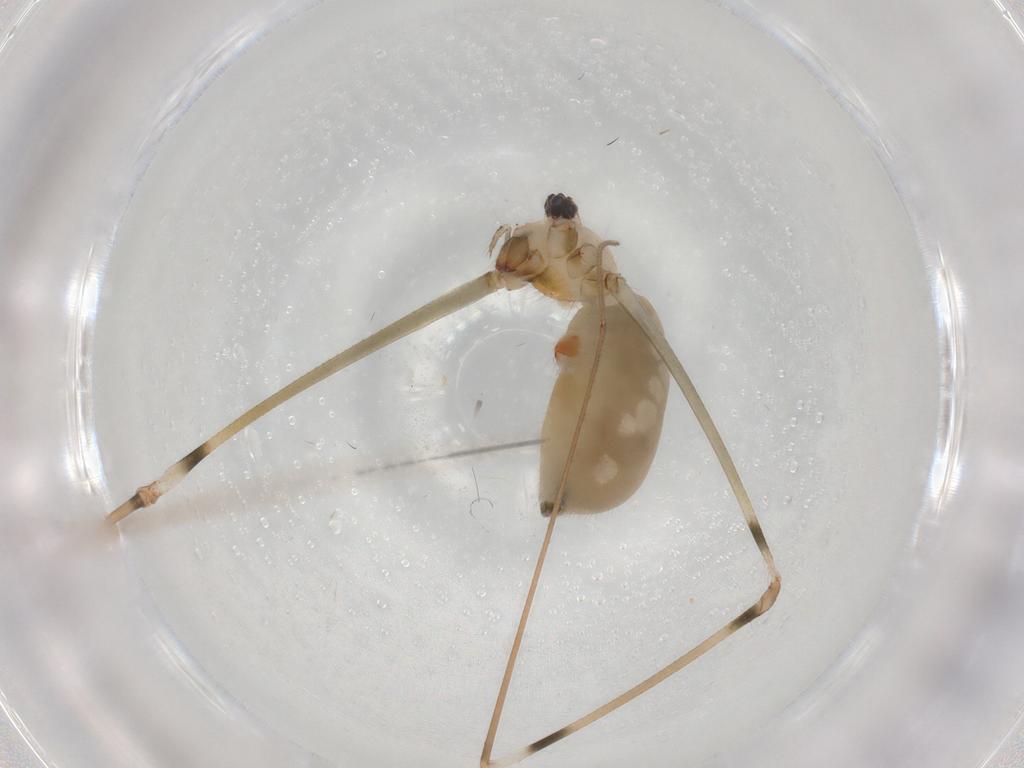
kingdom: Animalia
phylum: Arthropoda
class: Arachnida
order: Araneae
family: Pholcidae
